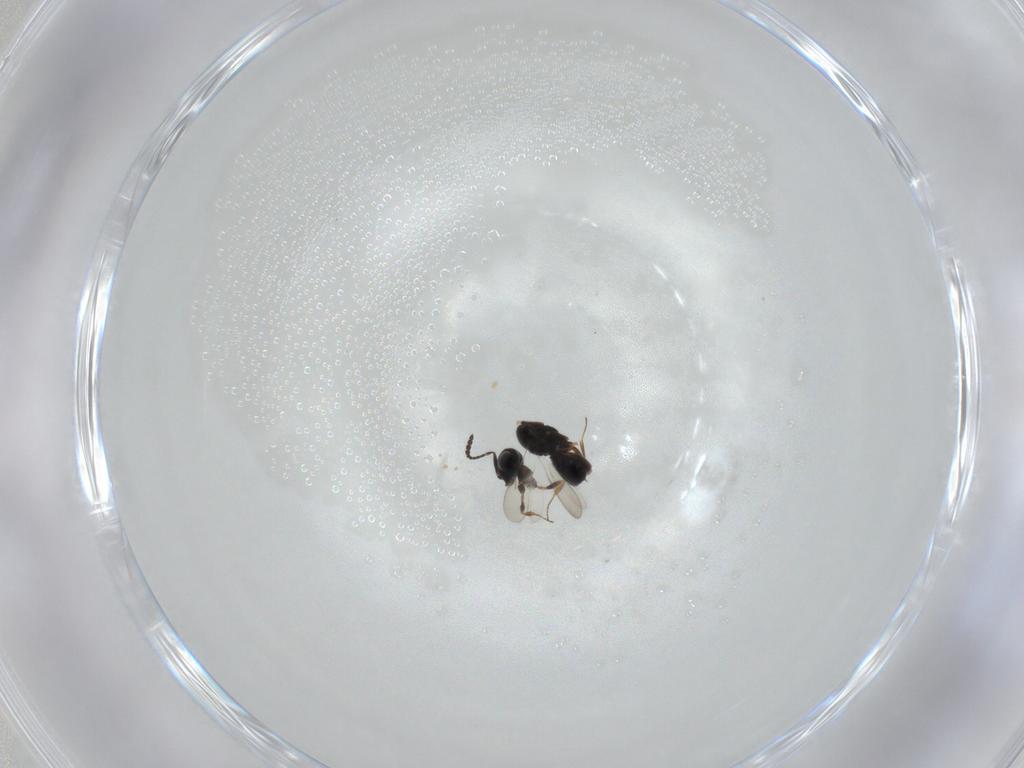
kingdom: Animalia
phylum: Arthropoda
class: Insecta
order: Hymenoptera
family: Scelionidae
